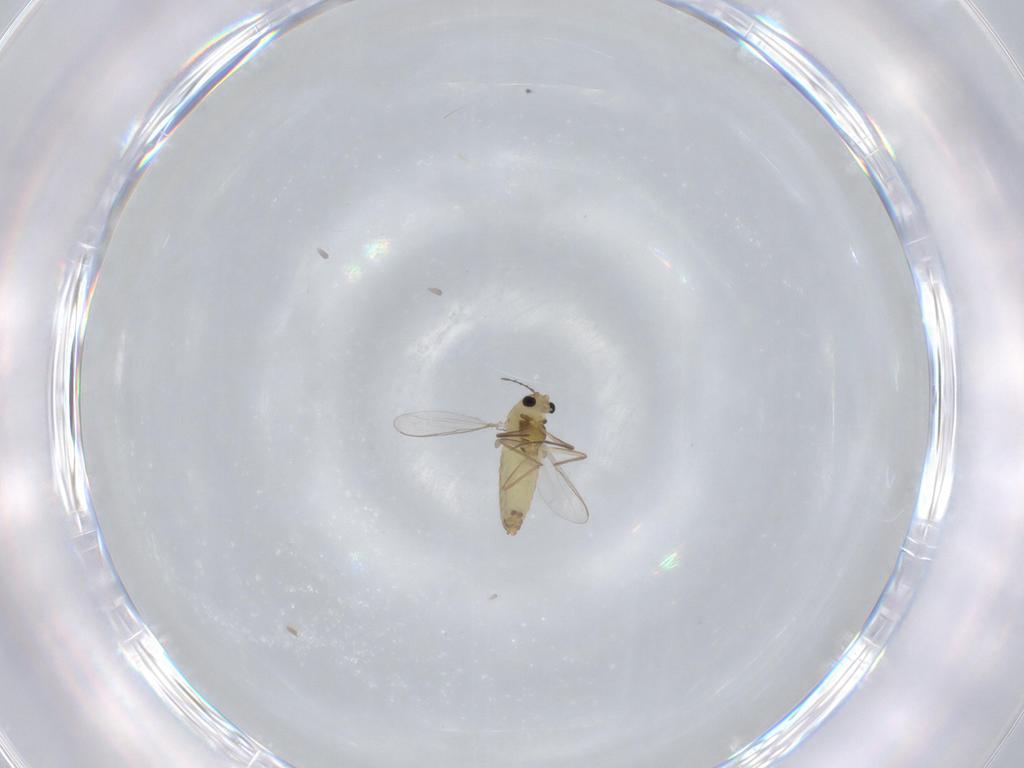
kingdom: Animalia
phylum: Arthropoda
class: Insecta
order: Diptera
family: Chironomidae
